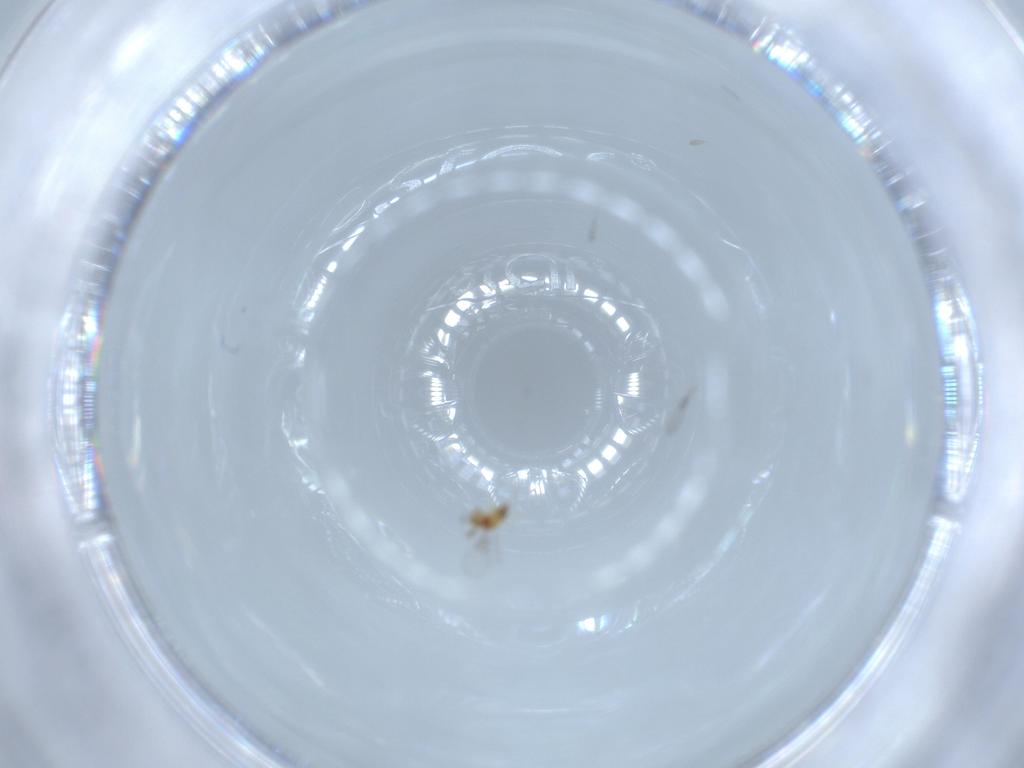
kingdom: Animalia
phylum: Arthropoda
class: Insecta
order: Hymenoptera
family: Trichogrammatidae
